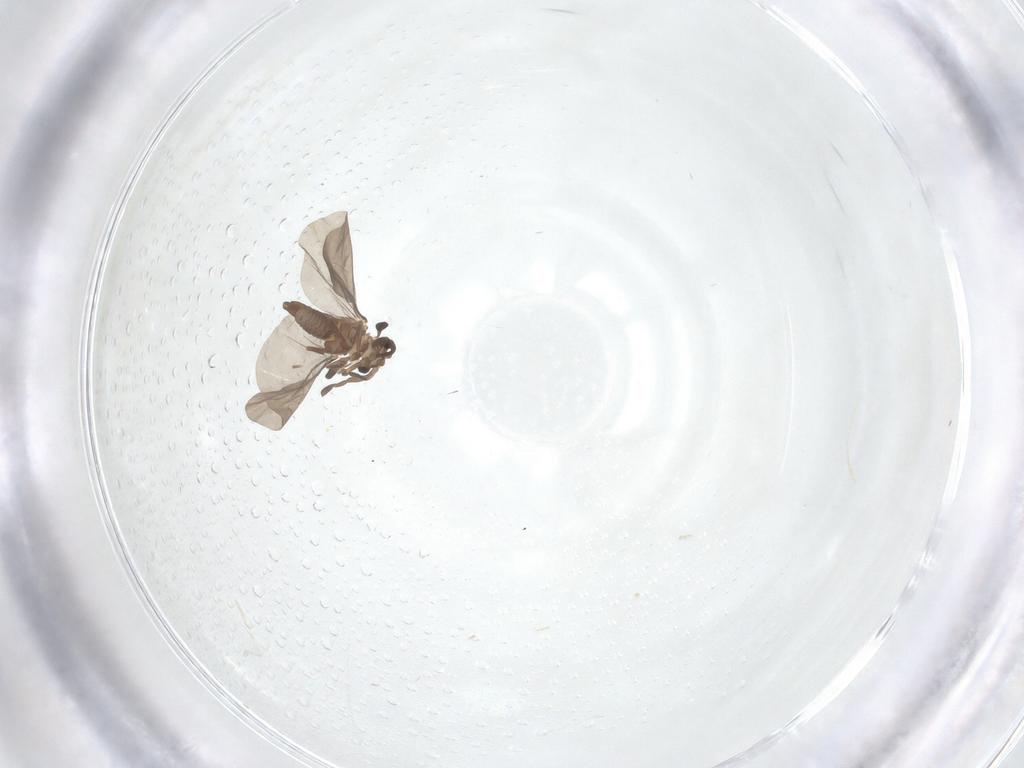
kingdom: Animalia
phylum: Arthropoda
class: Insecta
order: Strepsiptera
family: Myrmecolacidae
